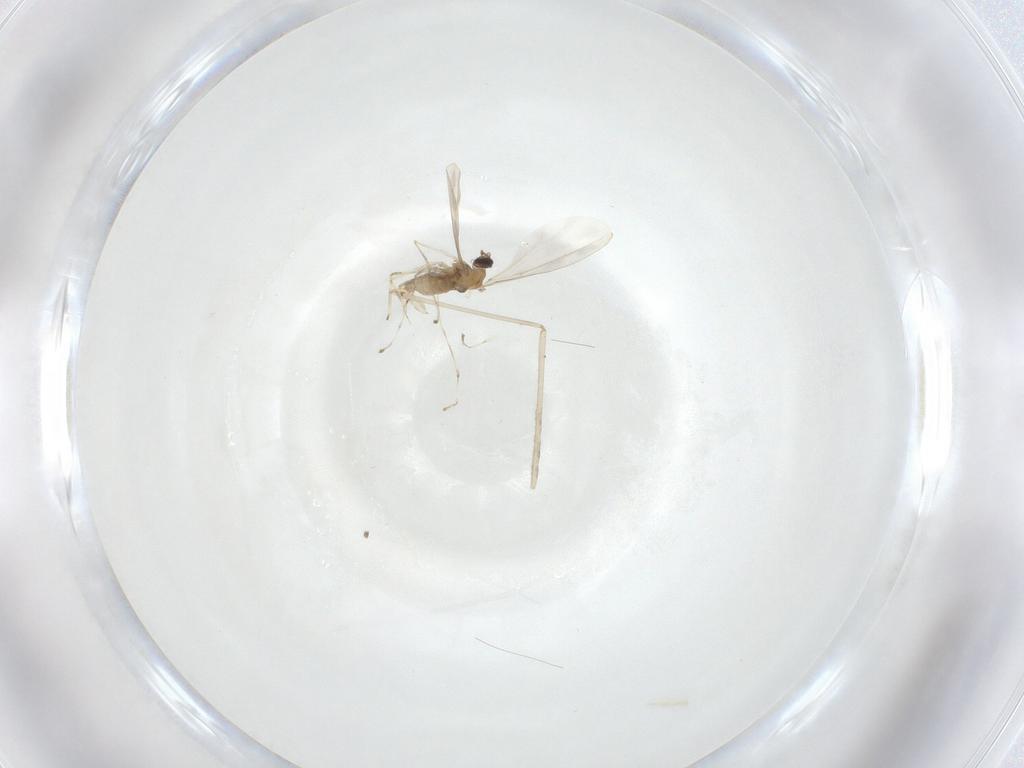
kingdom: Animalia
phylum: Arthropoda
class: Insecta
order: Diptera
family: Cecidomyiidae
